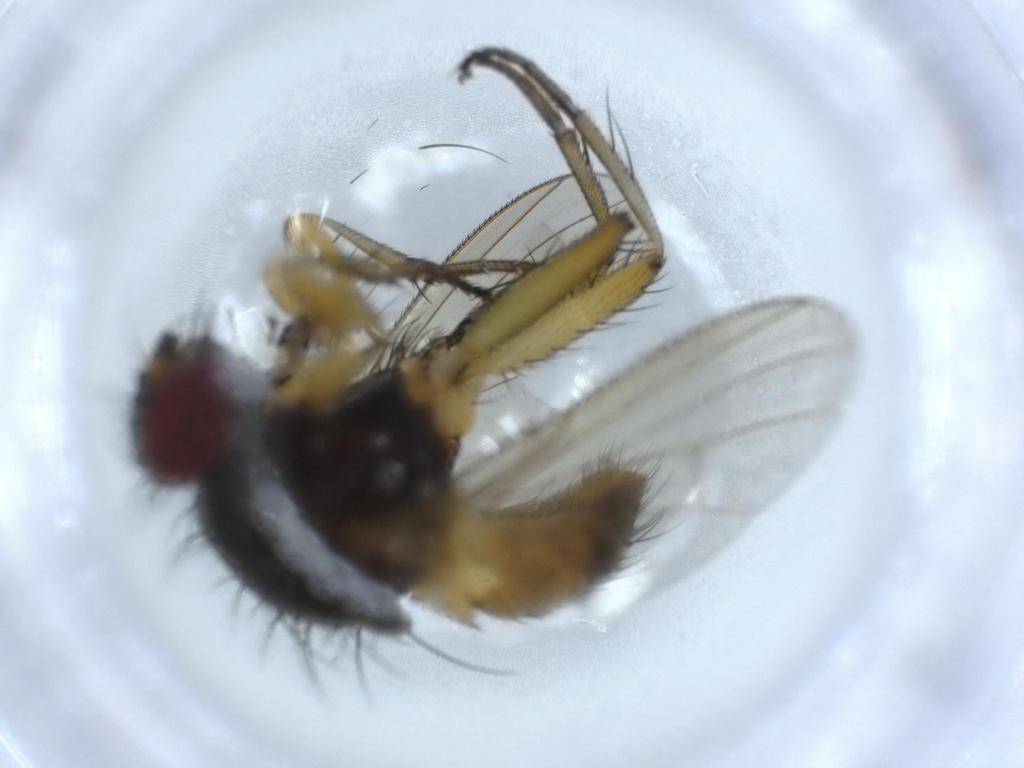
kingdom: Animalia
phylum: Arthropoda
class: Insecta
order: Diptera
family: Muscidae
